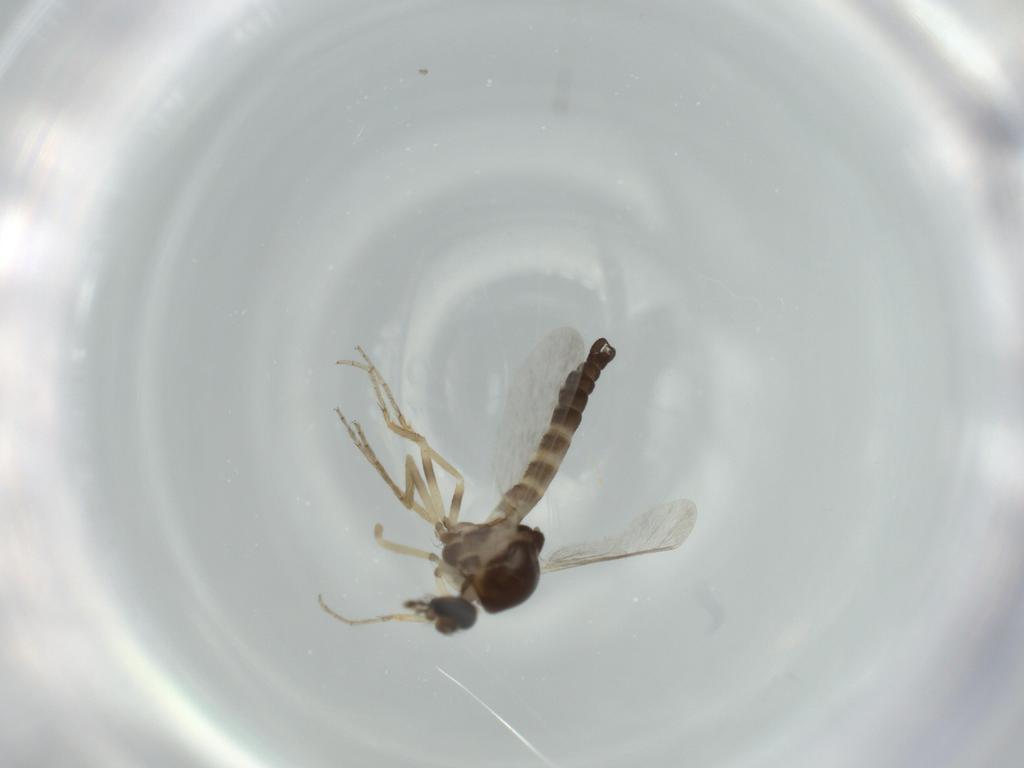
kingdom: Animalia
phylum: Arthropoda
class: Insecta
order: Diptera
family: Ceratopogonidae
